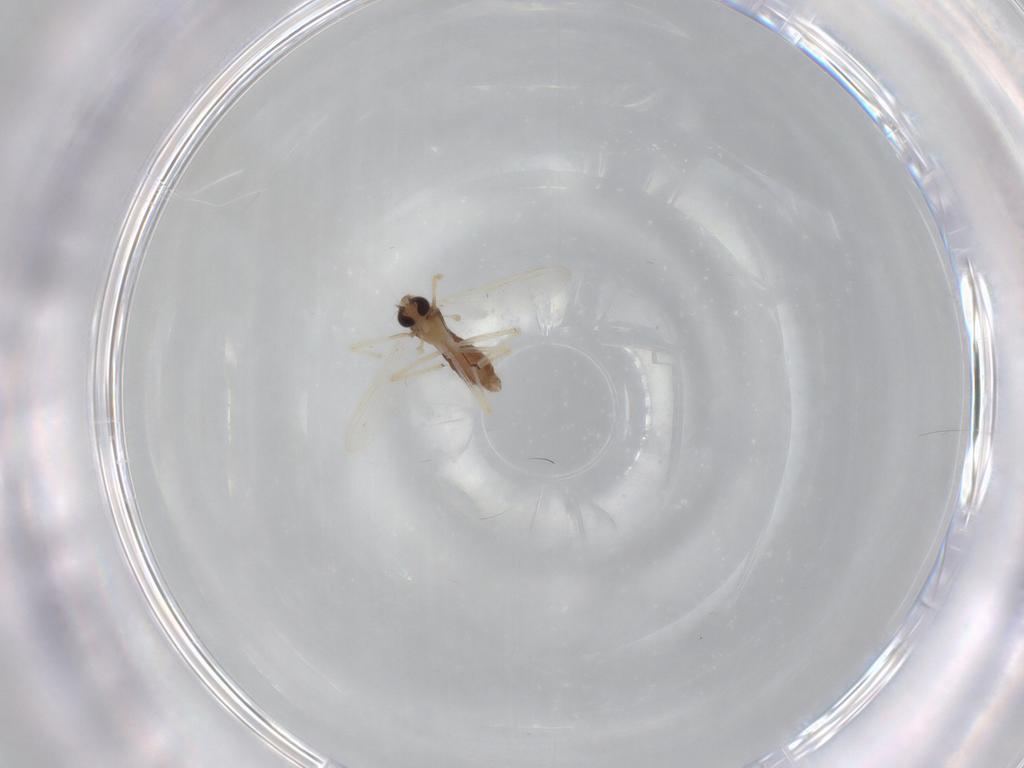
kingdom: Animalia
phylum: Arthropoda
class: Insecta
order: Diptera
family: Chironomidae
